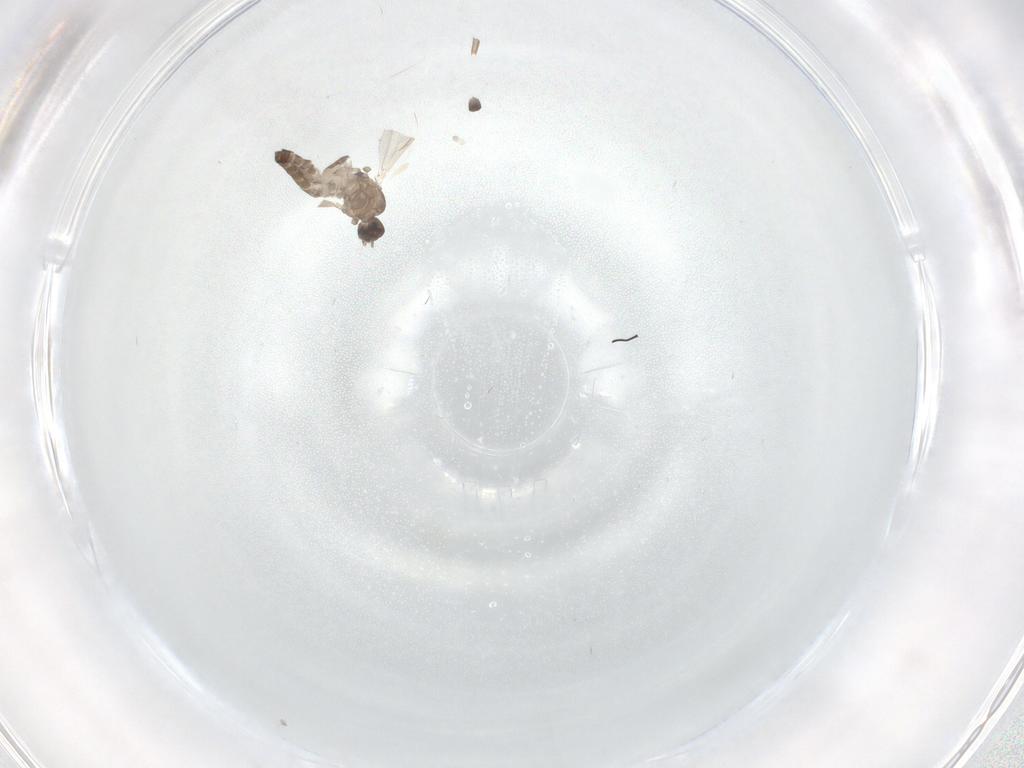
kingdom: Animalia
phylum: Arthropoda
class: Insecta
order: Diptera
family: Ceratopogonidae
